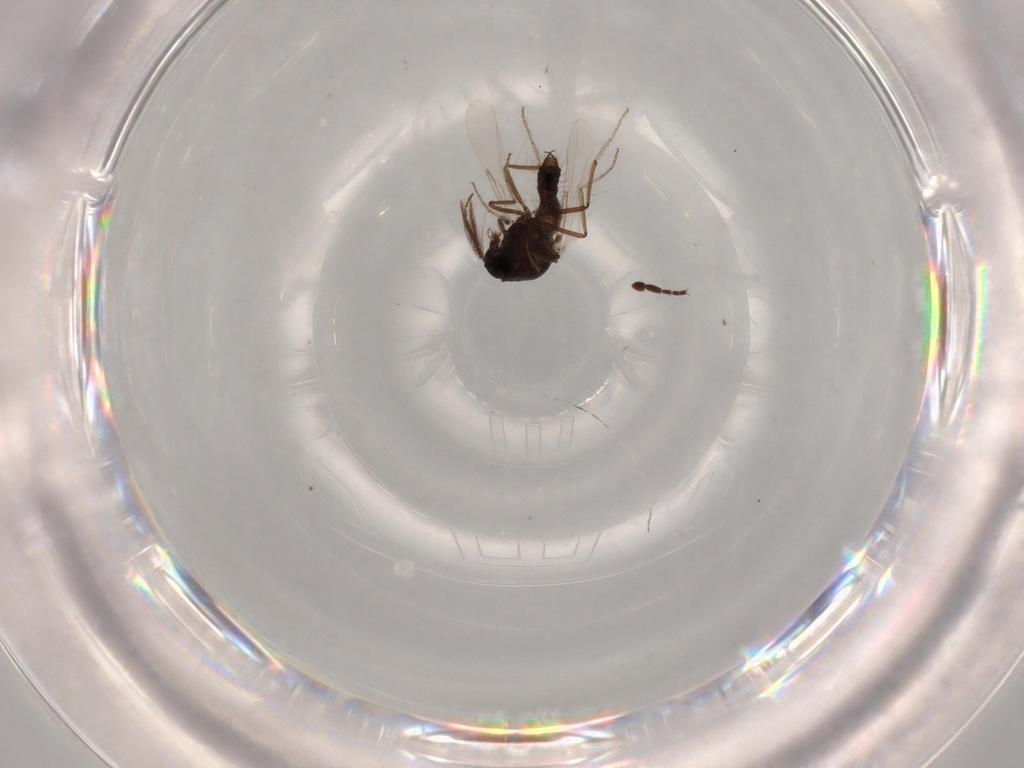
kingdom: Animalia
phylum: Arthropoda
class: Insecta
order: Diptera
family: Chironomidae
